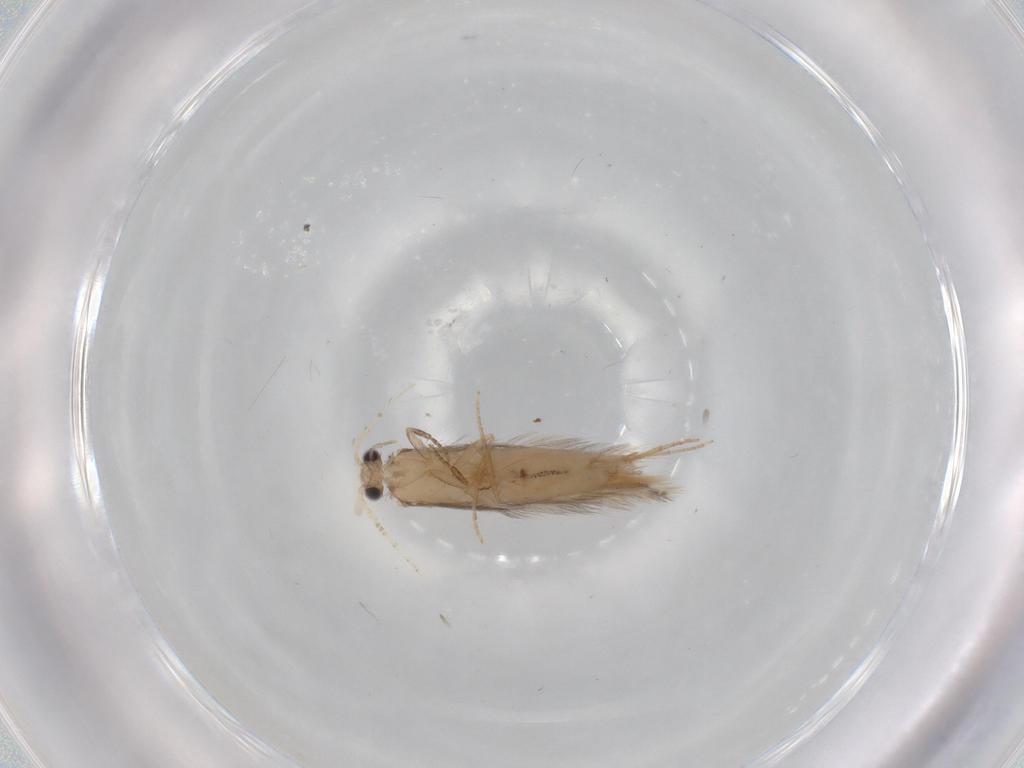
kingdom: Animalia
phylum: Arthropoda
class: Insecta
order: Trichoptera
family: Hydroptilidae
